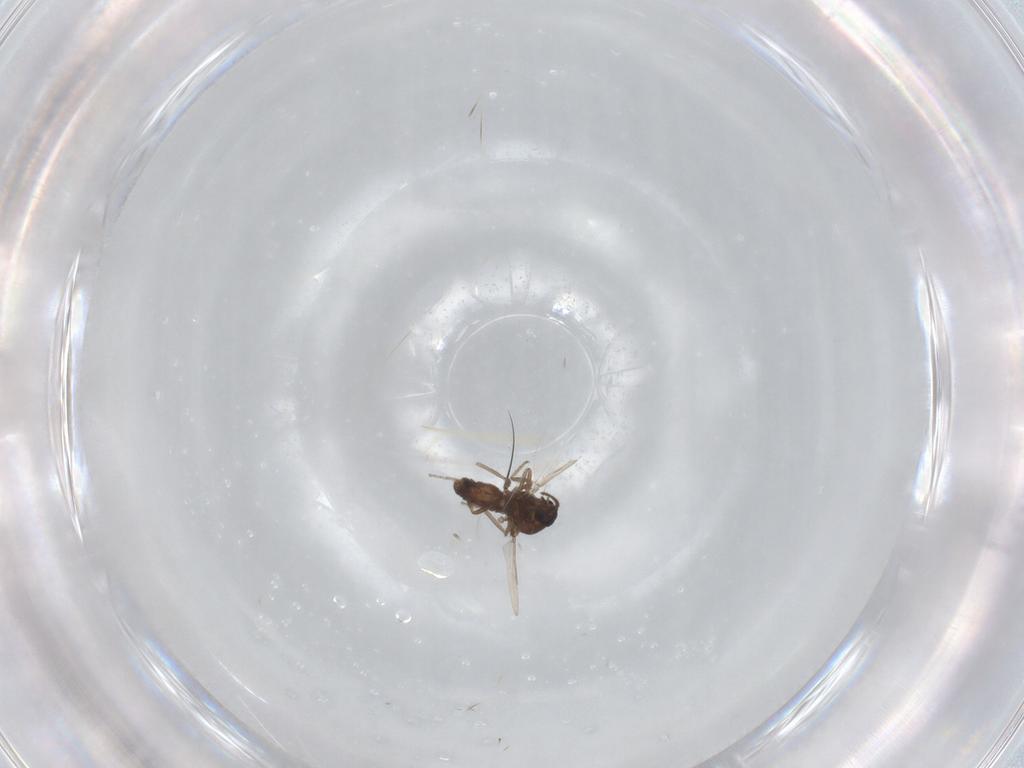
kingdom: Animalia
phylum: Arthropoda
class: Insecta
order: Diptera
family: Ceratopogonidae
